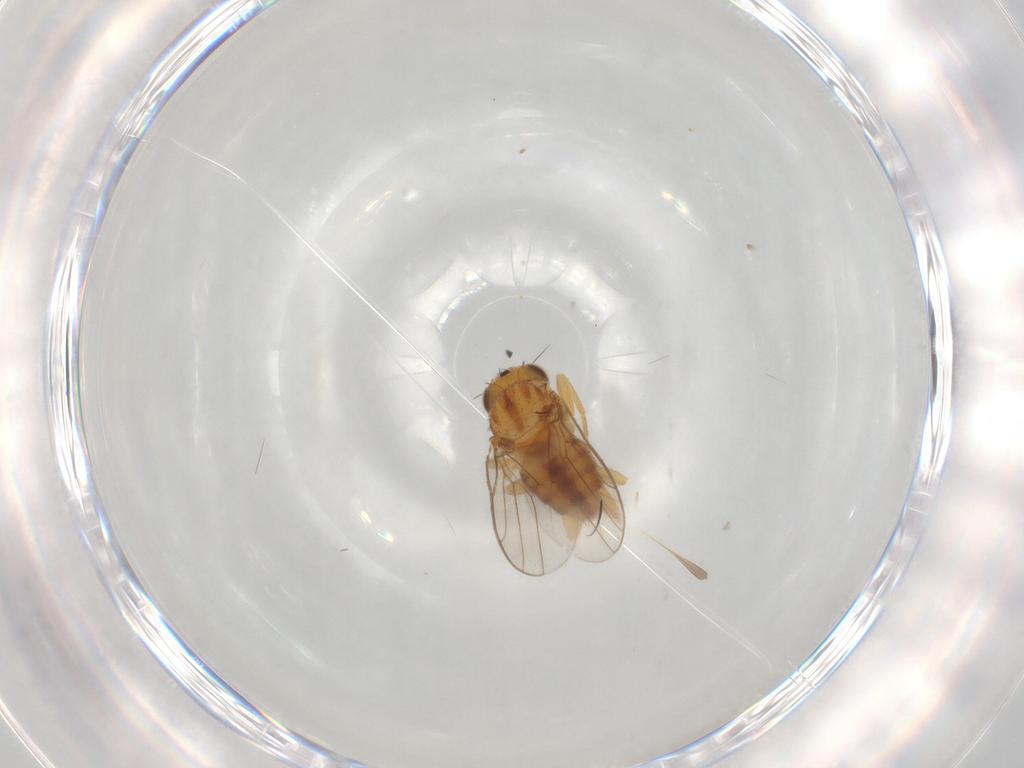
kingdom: Animalia
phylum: Arthropoda
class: Insecta
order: Diptera
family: Chloropidae
